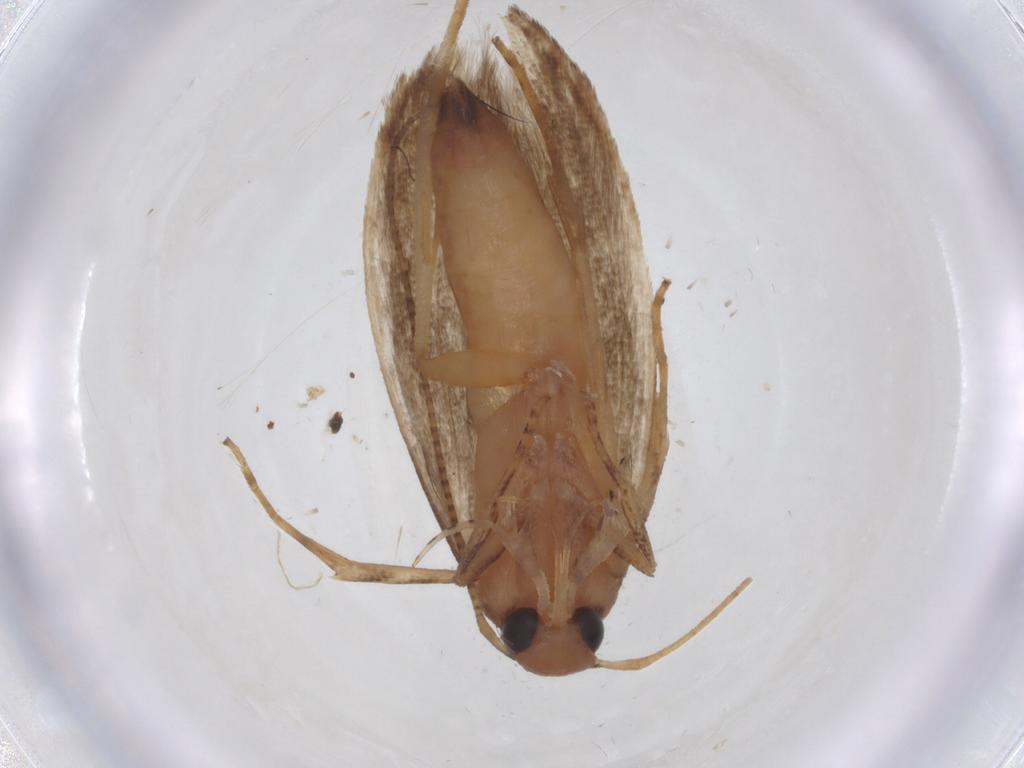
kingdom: Animalia
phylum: Arthropoda
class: Insecta
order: Lepidoptera
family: Momphidae
